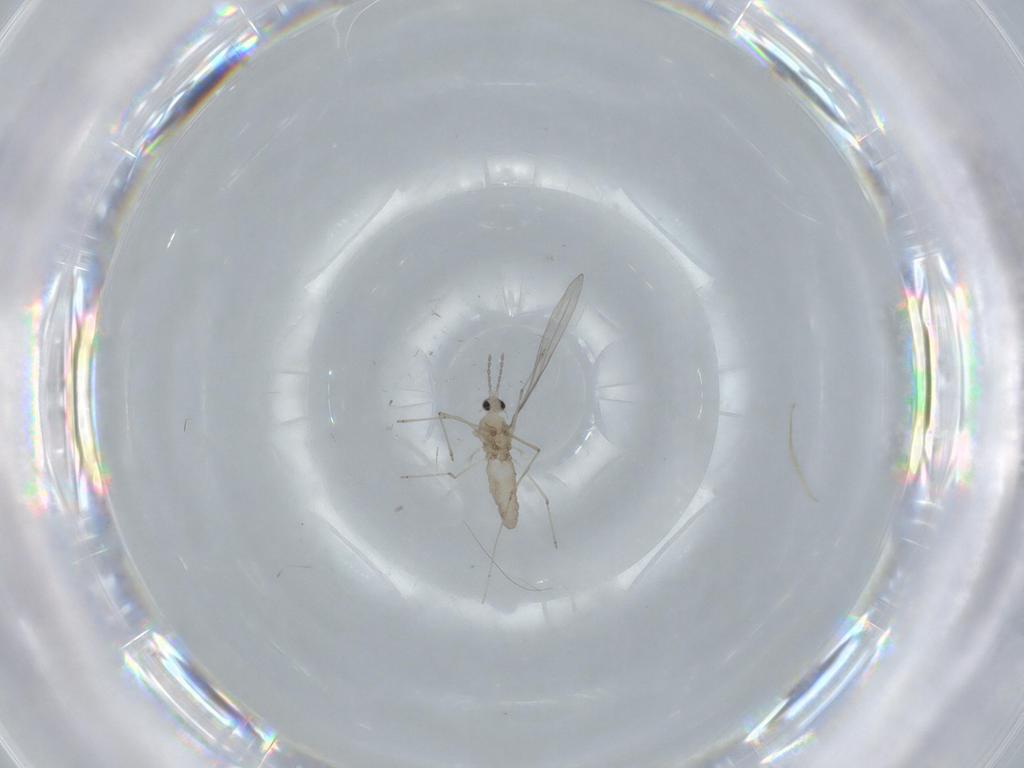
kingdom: Animalia
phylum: Arthropoda
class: Insecta
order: Diptera
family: Cecidomyiidae
